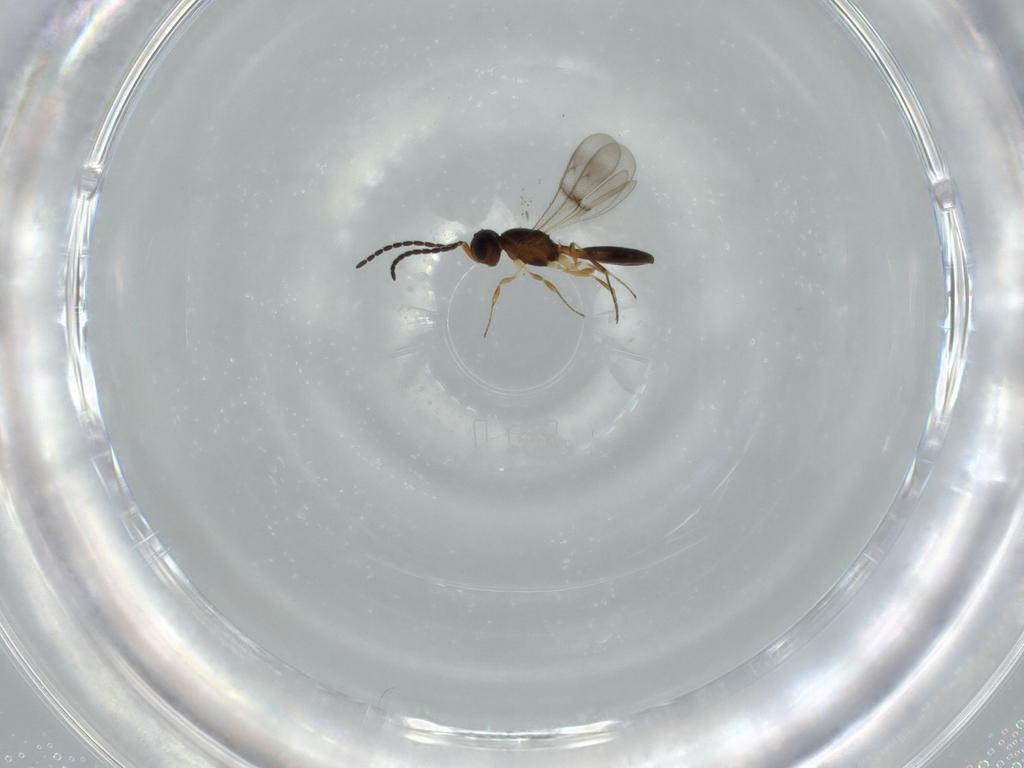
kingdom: Animalia
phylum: Arthropoda
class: Insecta
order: Hymenoptera
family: Scelionidae
